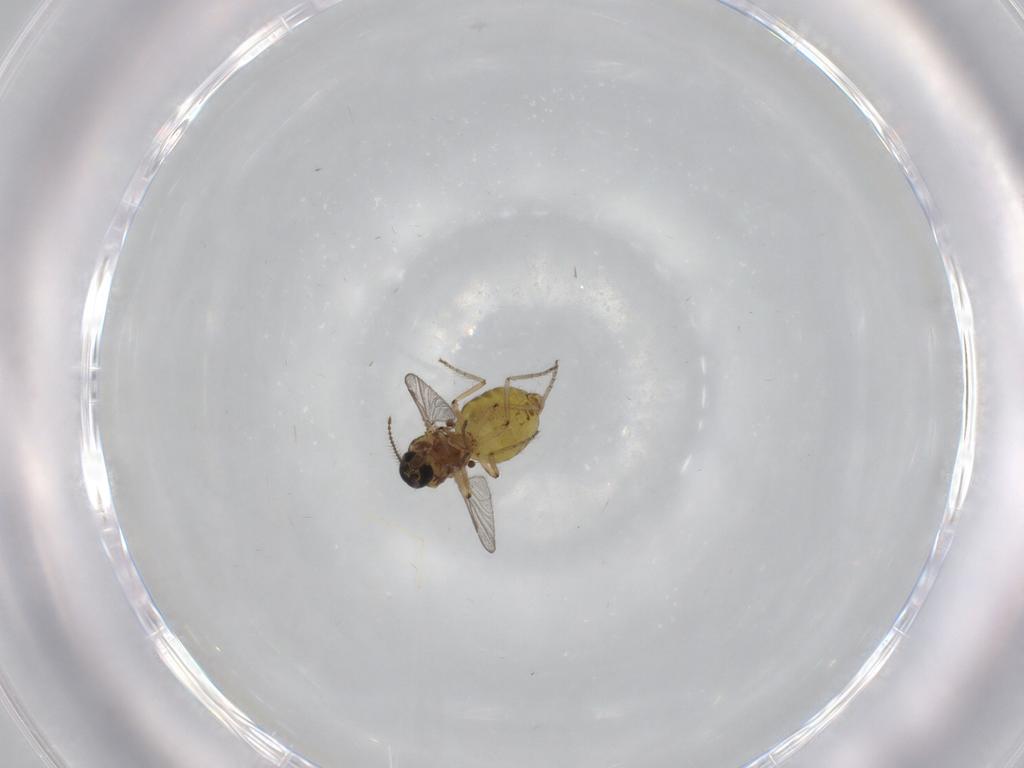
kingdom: Animalia
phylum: Arthropoda
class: Insecta
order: Diptera
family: Ceratopogonidae
